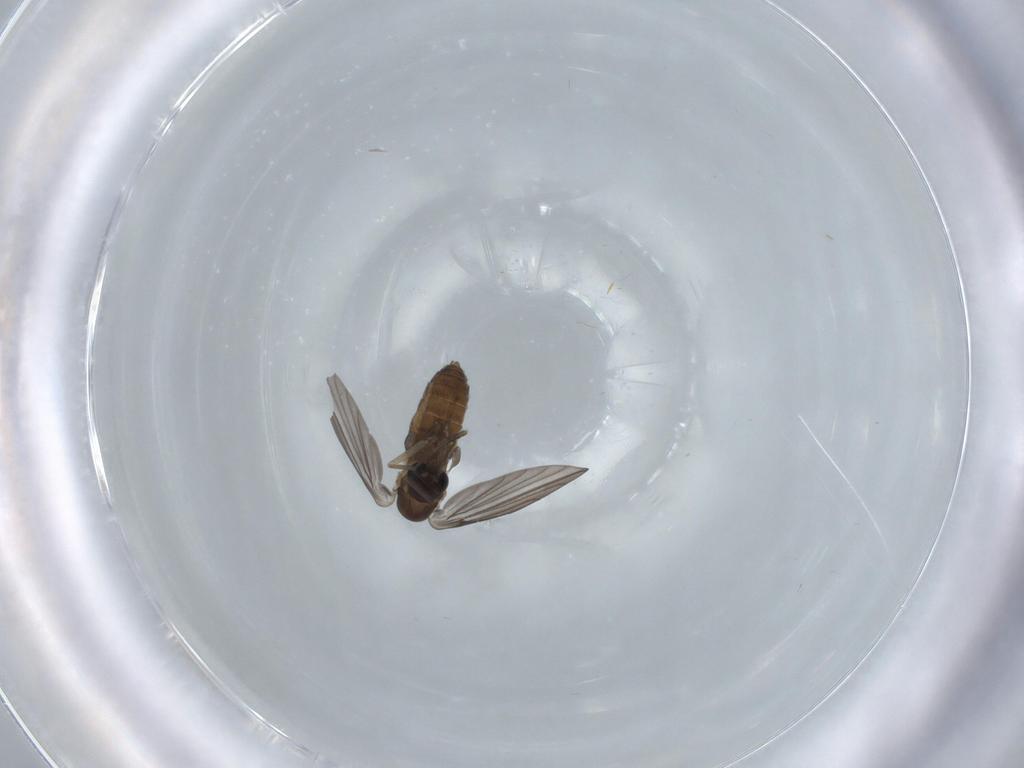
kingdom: Animalia
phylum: Arthropoda
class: Insecta
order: Diptera
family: Psychodidae
